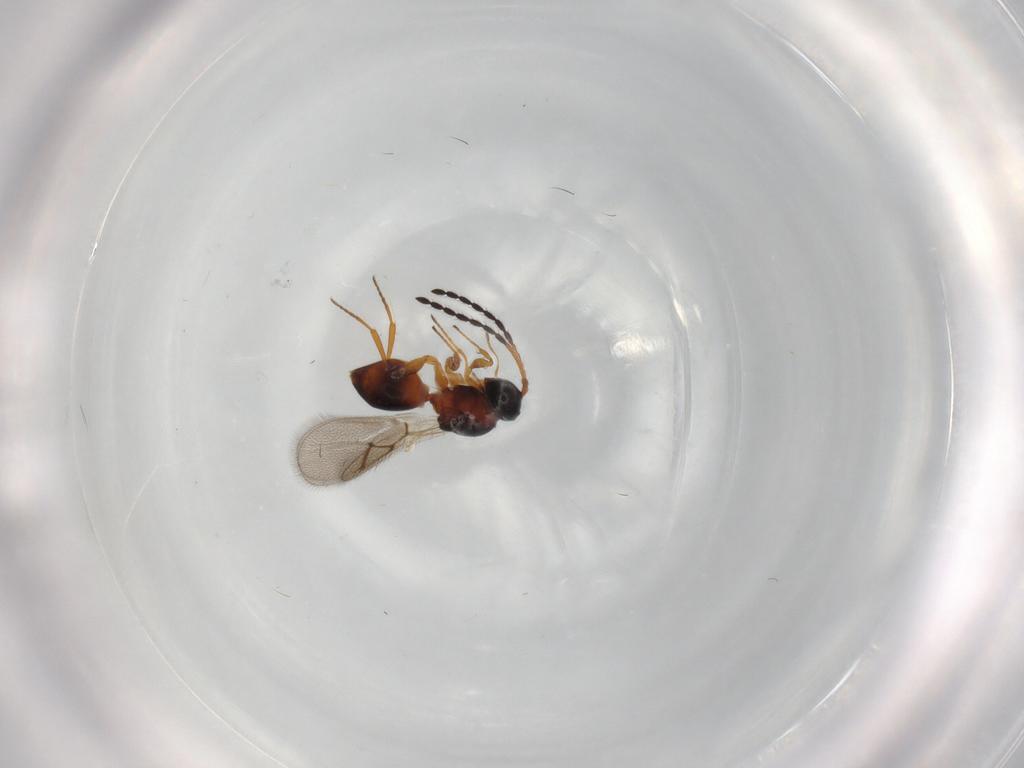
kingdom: Animalia
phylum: Arthropoda
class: Insecta
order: Hymenoptera
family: Figitidae
